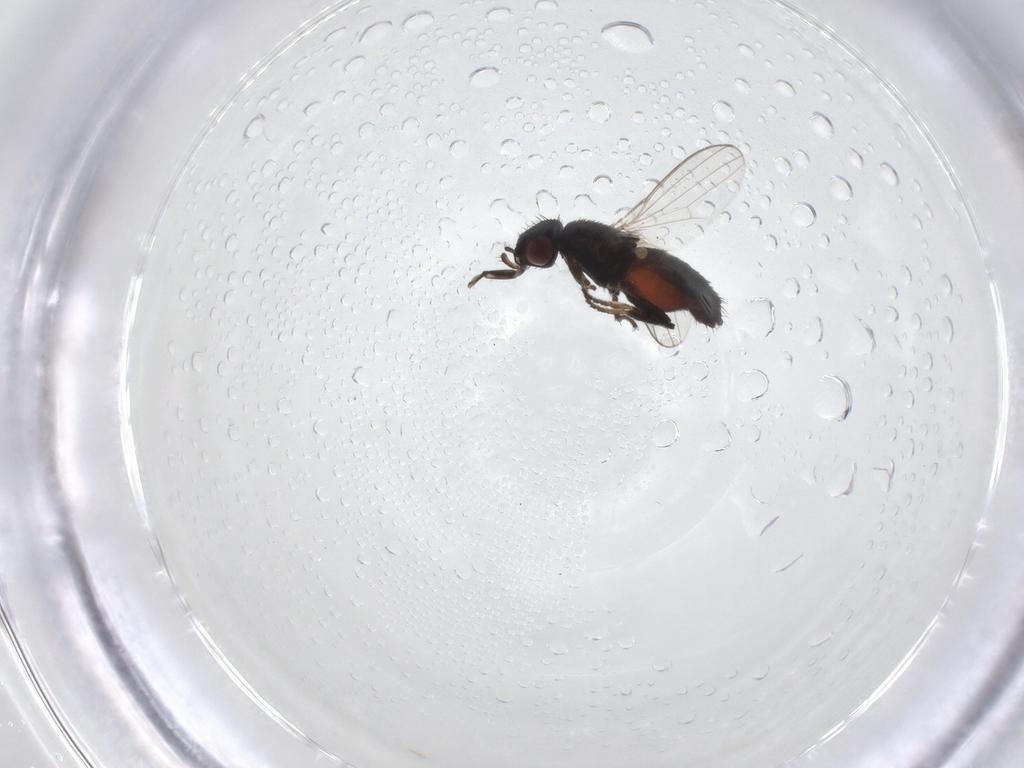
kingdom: Animalia
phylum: Arthropoda
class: Insecta
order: Diptera
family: Milichiidae
